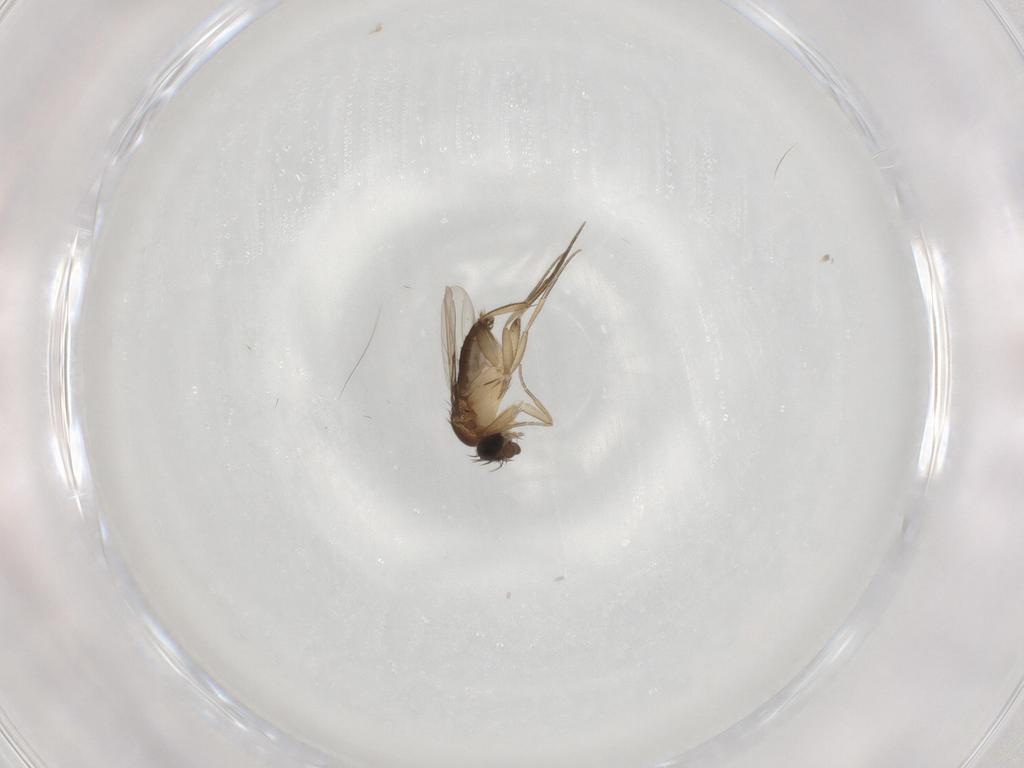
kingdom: Animalia
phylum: Arthropoda
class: Insecta
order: Diptera
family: Phoridae
